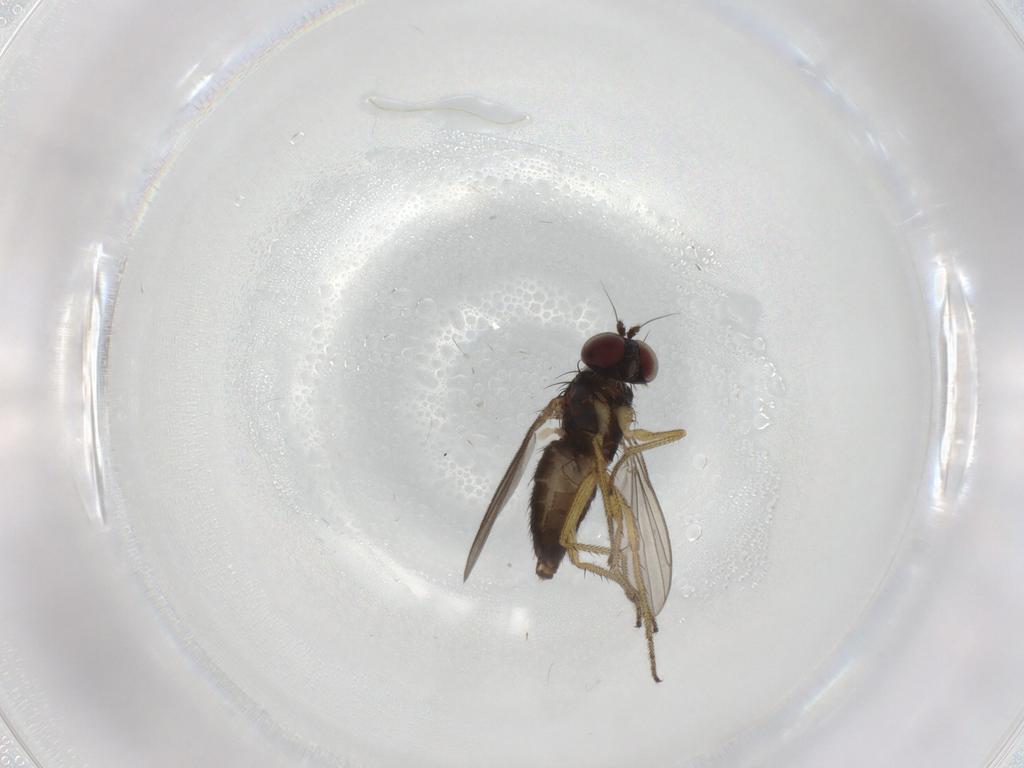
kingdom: Animalia
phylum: Arthropoda
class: Insecta
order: Diptera
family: Dolichopodidae
